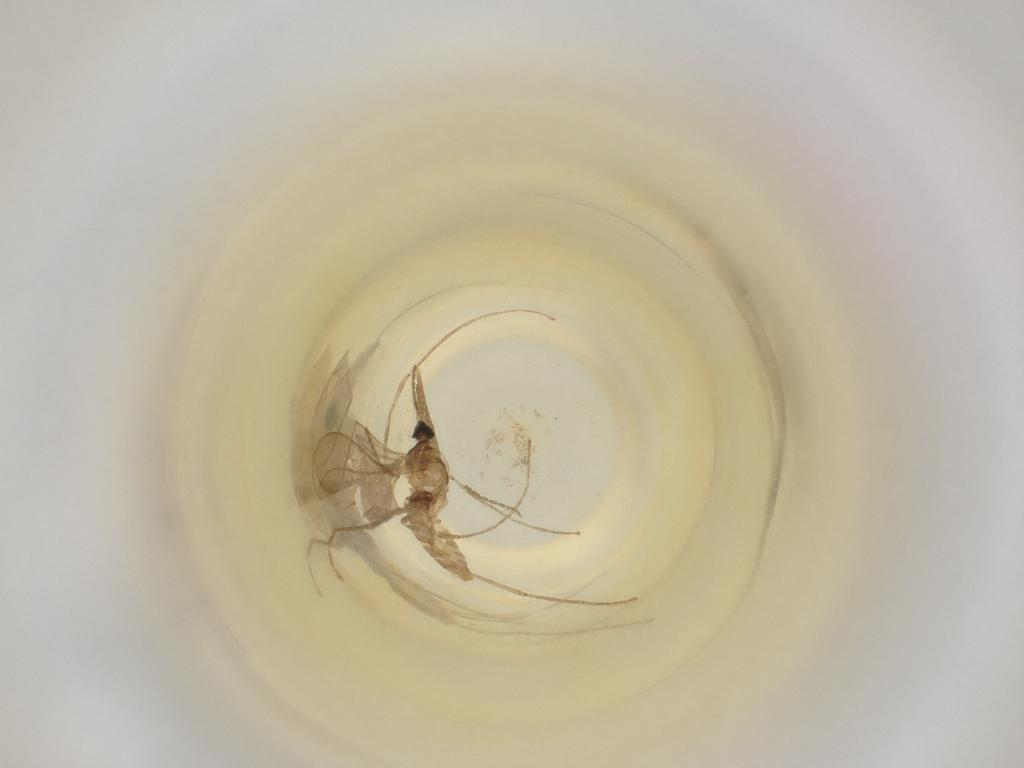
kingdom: Animalia
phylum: Arthropoda
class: Insecta
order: Diptera
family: Cecidomyiidae
